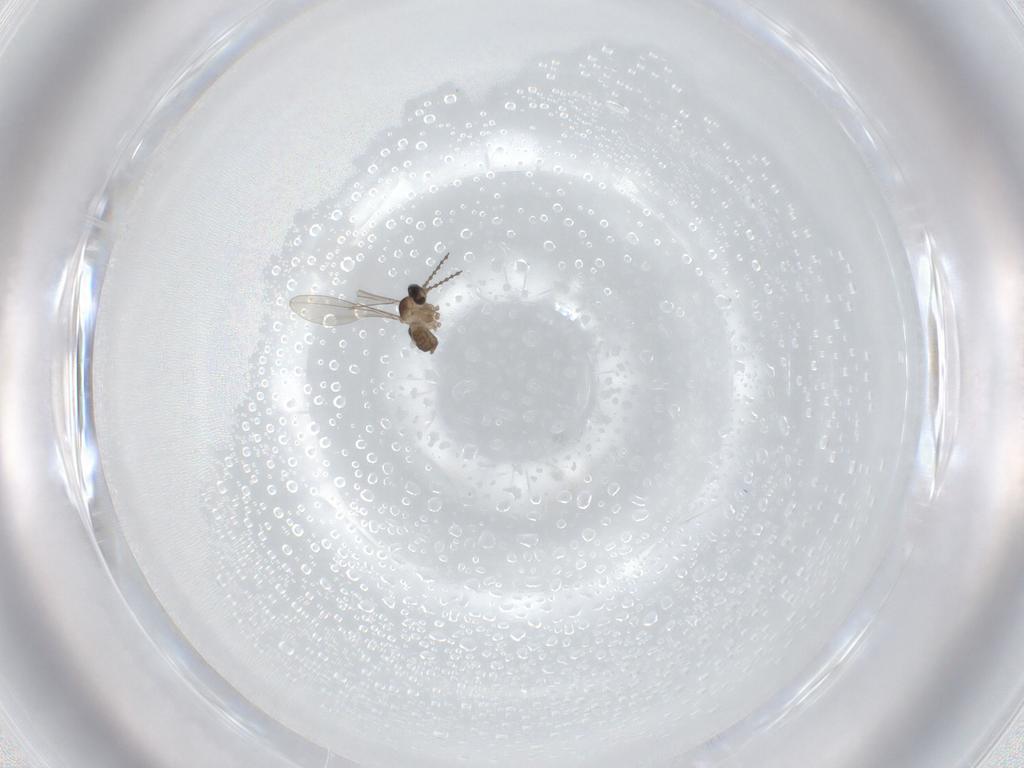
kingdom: Animalia
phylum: Arthropoda
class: Insecta
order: Diptera
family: Cecidomyiidae
